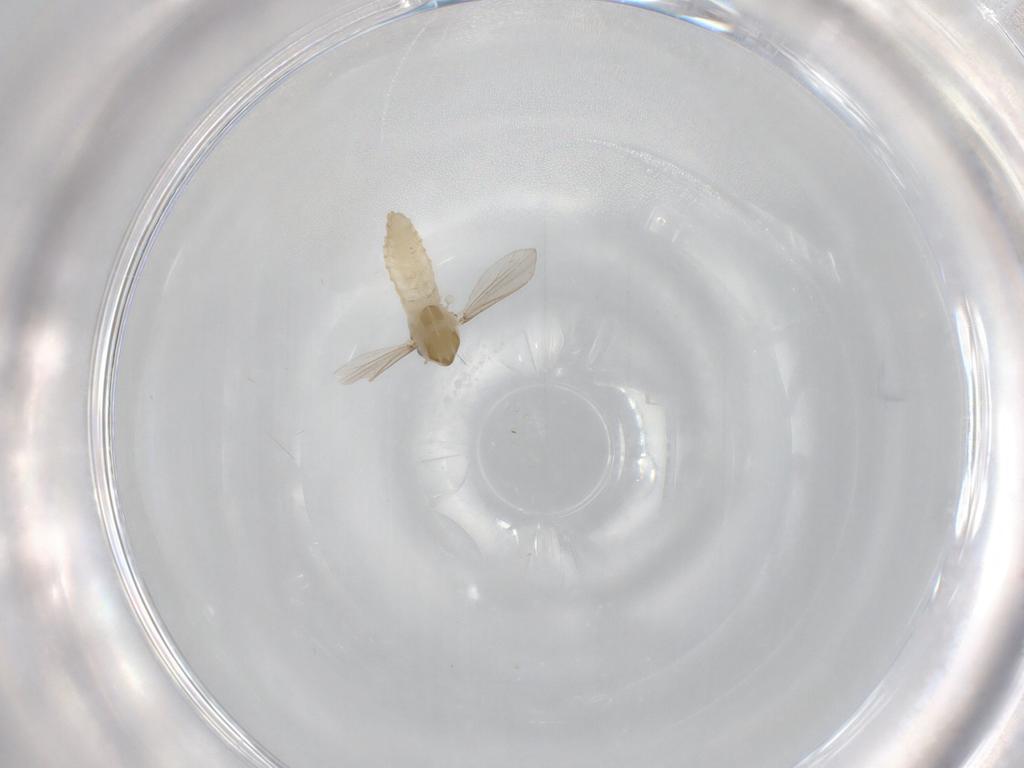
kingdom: Animalia
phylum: Arthropoda
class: Insecta
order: Diptera
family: Chironomidae
